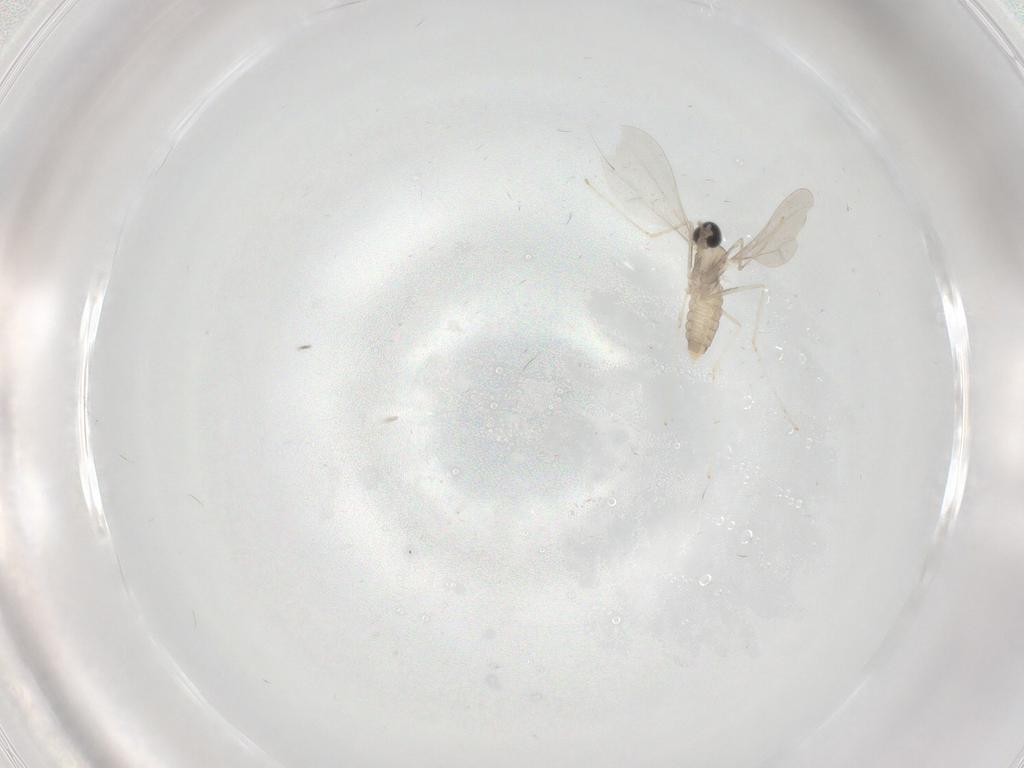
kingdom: Animalia
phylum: Arthropoda
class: Insecta
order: Diptera
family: Cecidomyiidae
